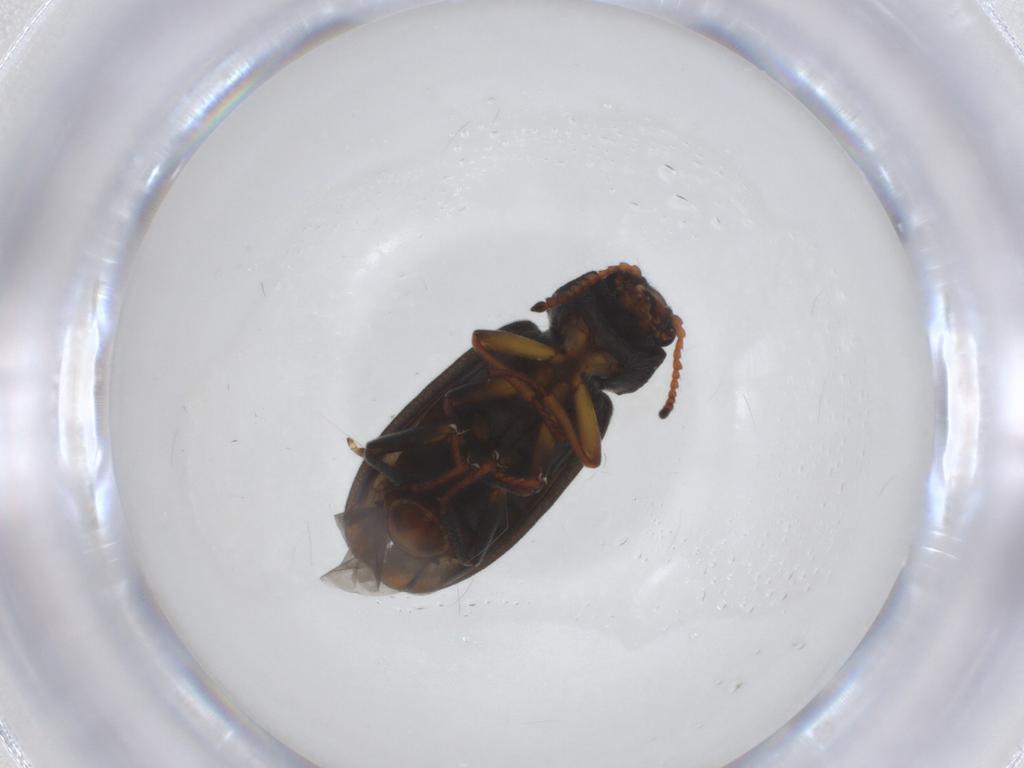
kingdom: Animalia
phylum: Arthropoda
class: Insecta
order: Coleoptera
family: Melyridae
